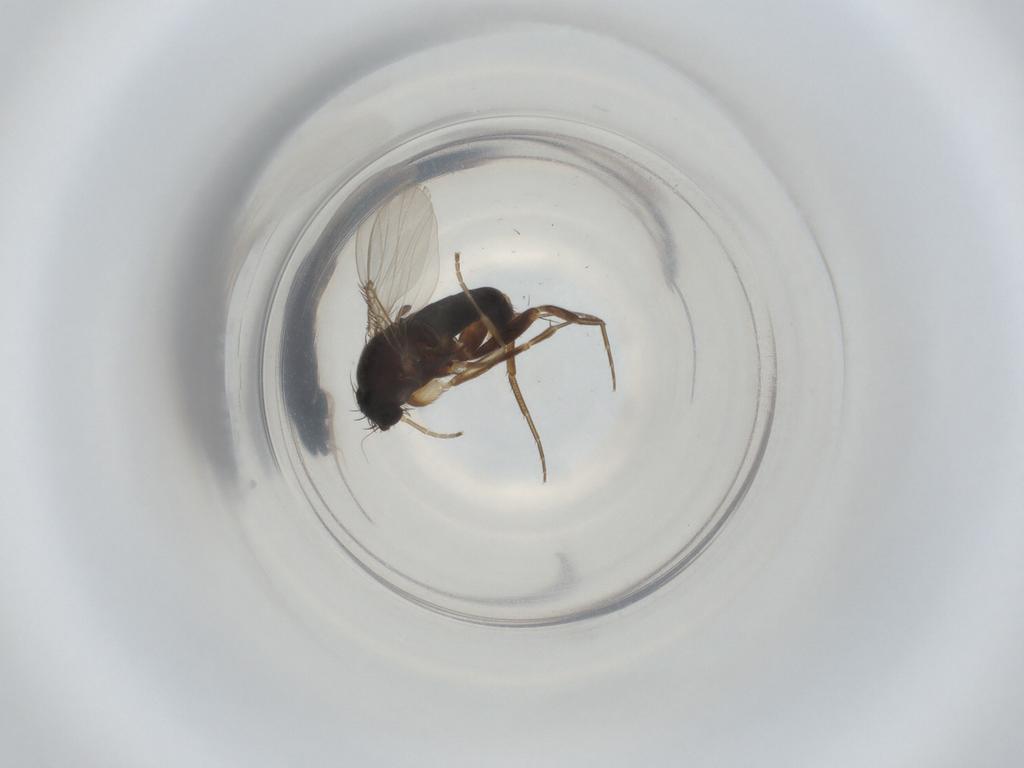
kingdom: Animalia
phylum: Arthropoda
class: Insecta
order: Diptera
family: Phoridae
